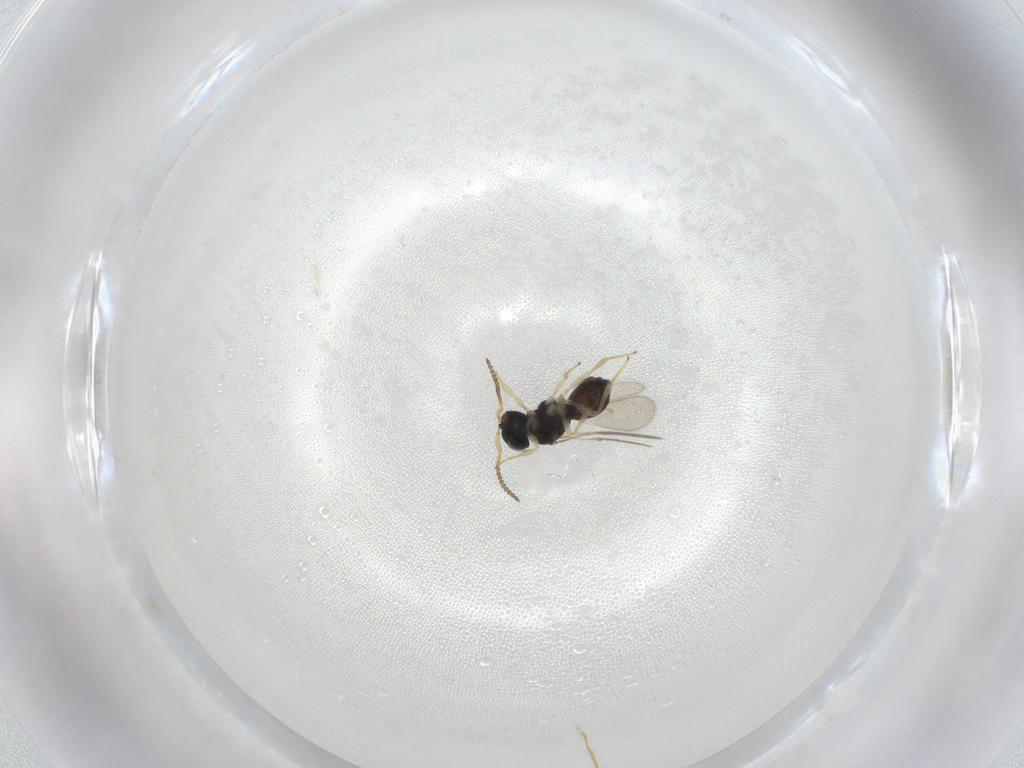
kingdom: Animalia
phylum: Arthropoda
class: Insecta
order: Hymenoptera
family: Scelionidae
